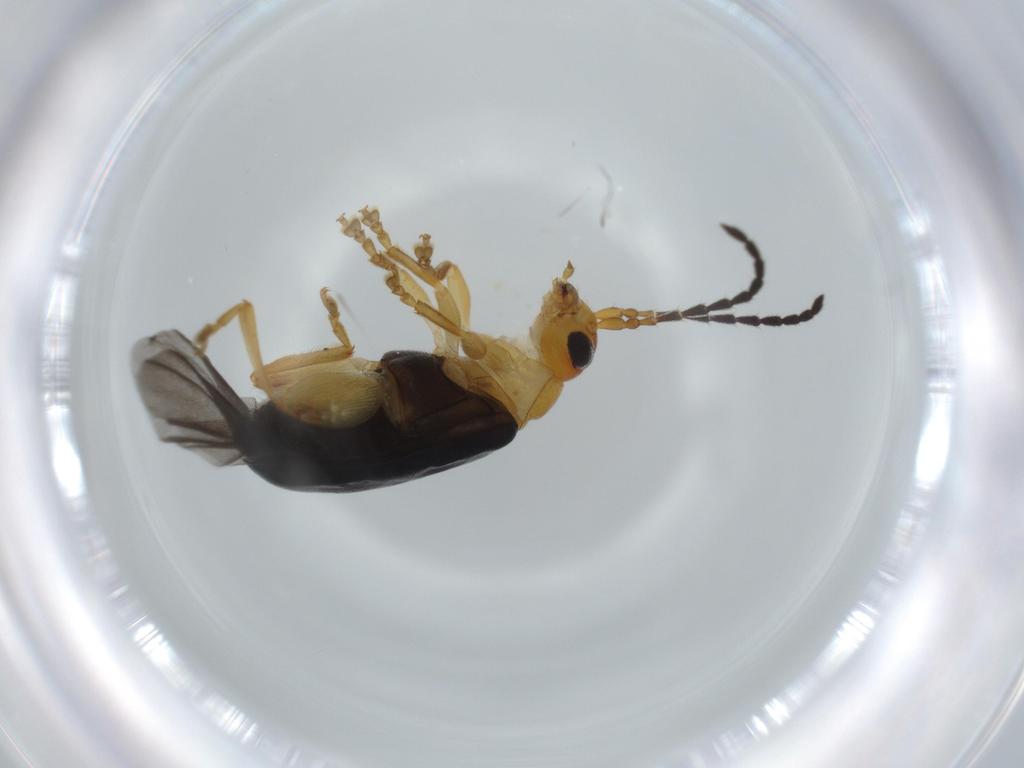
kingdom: Animalia
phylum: Arthropoda
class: Insecta
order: Coleoptera
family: Chrysomelidae
